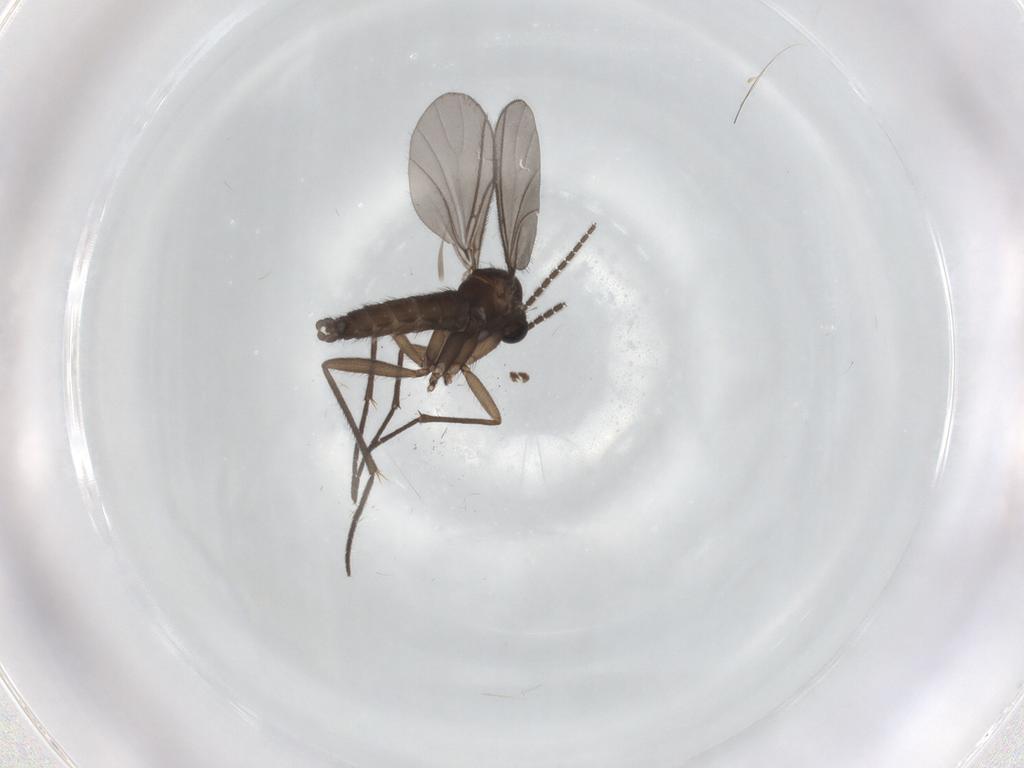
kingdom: Animalia
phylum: Arthropoda
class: Insecta
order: Diptera
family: Sciaridae
